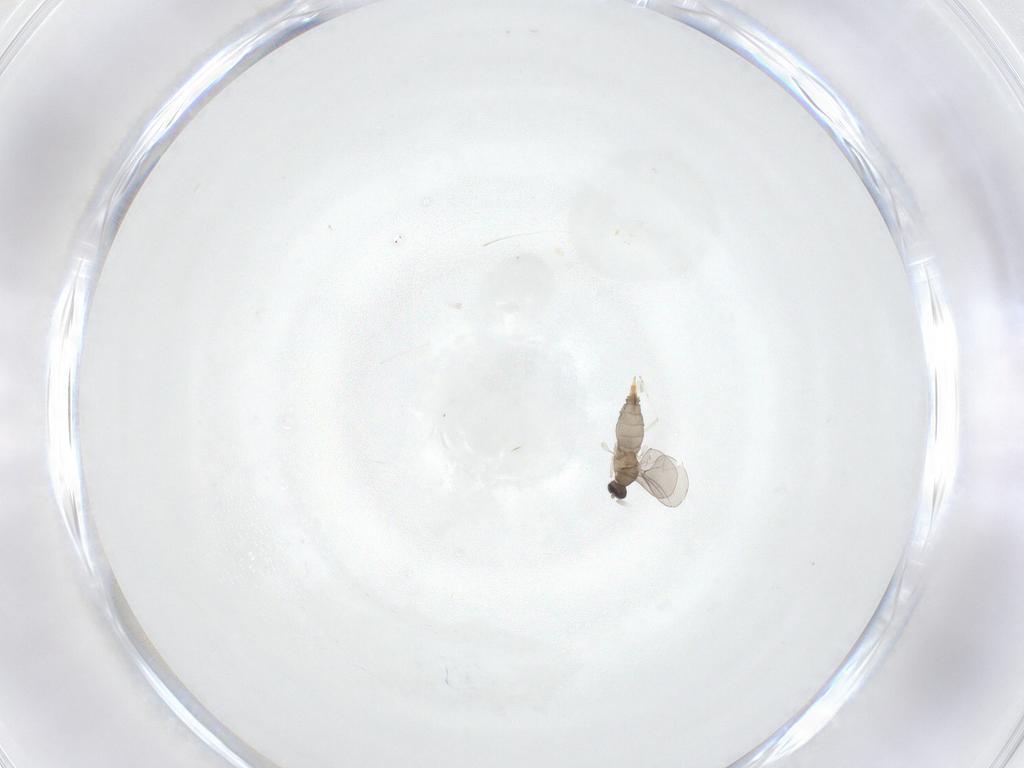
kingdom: Animalia
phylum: Arthropoda
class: Insecta
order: Diptera
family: Cecidomyiidae
